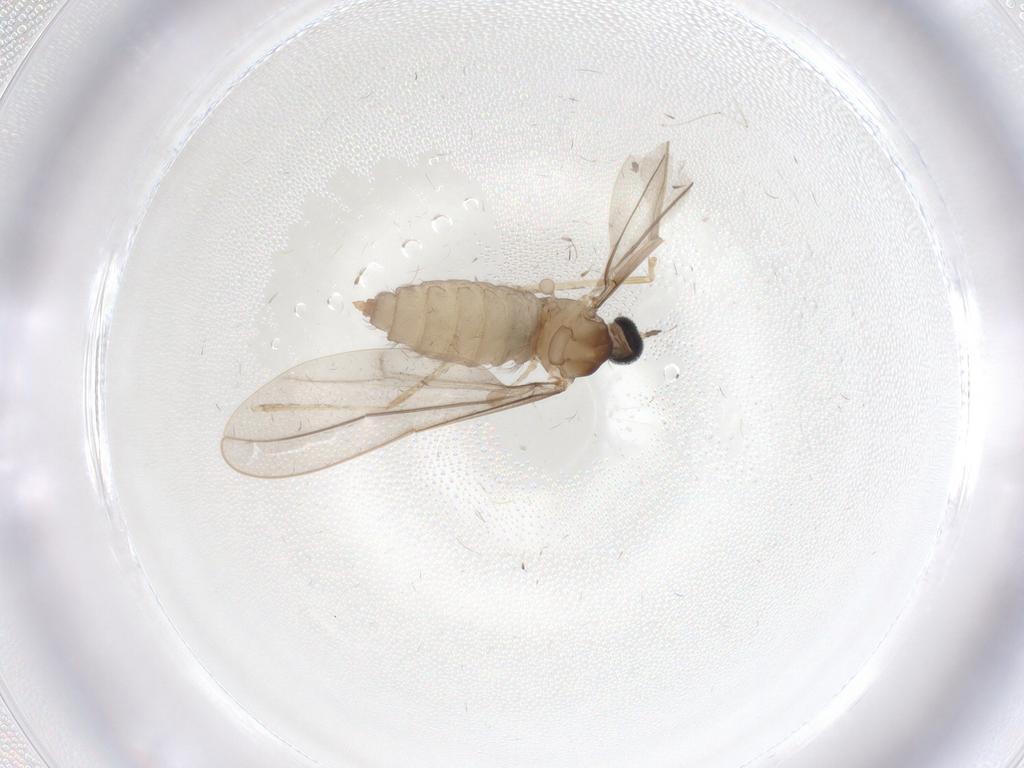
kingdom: Animalia
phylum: Arthropoda
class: Insecta
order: Diptera
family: Cecidomyiidae
